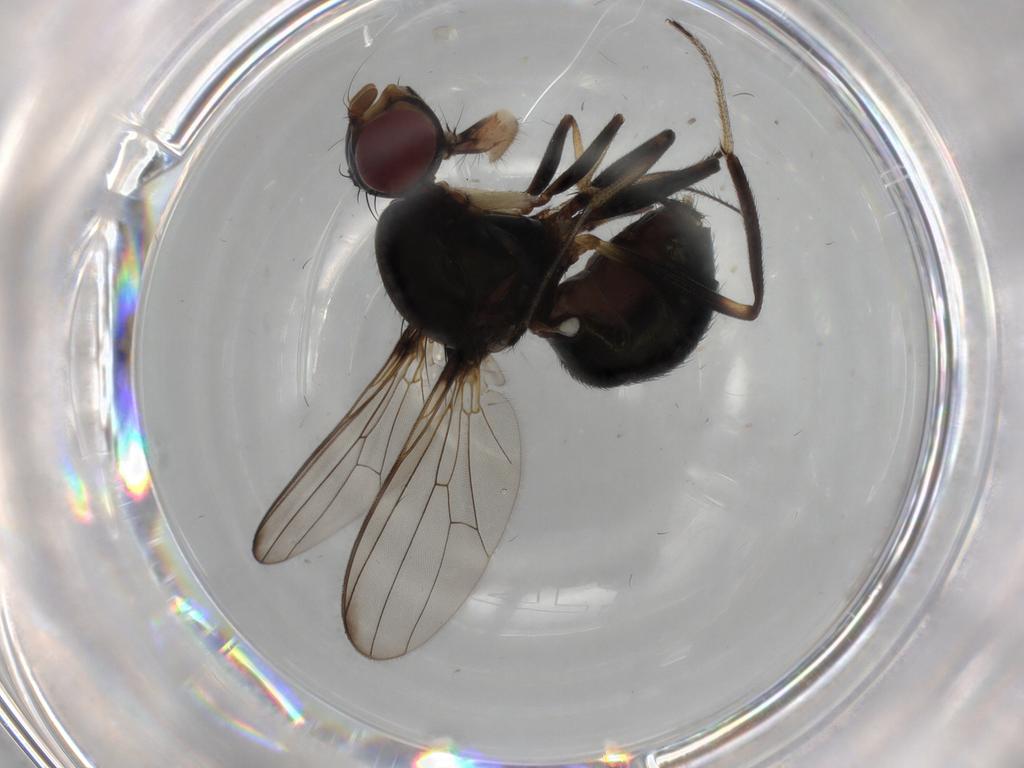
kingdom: Animalia
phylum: Arthropoda
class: Insecta
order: Diptera
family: Sepsidae
